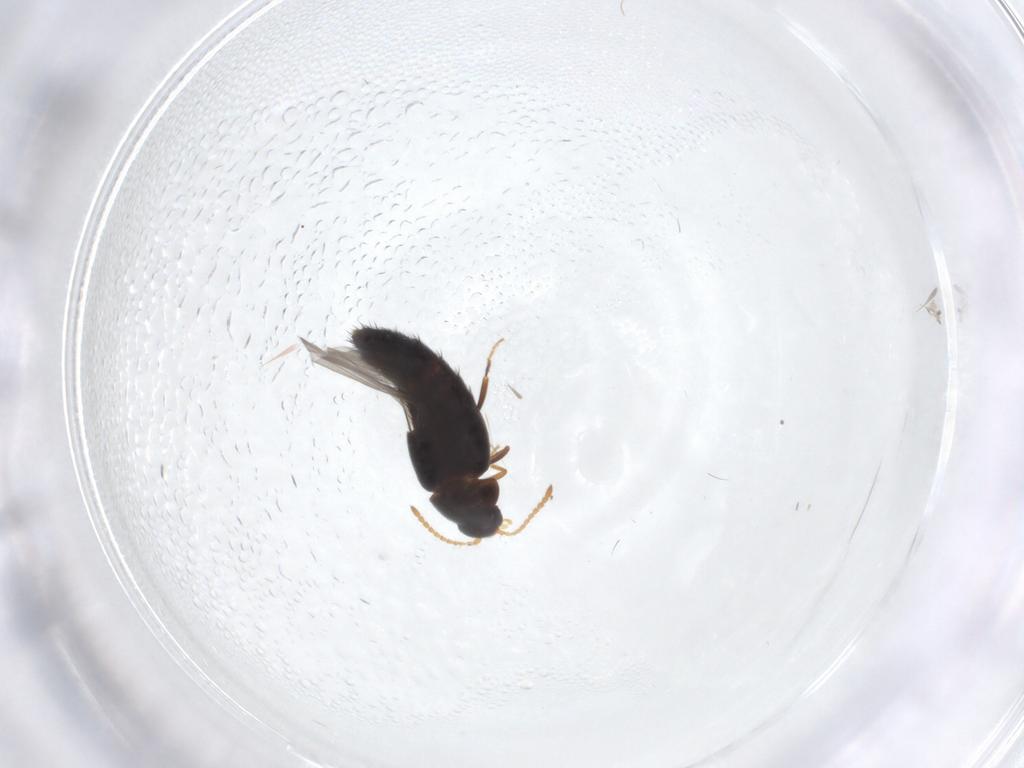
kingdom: Animalia
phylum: Arthropoda
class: Insecta
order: Coleoptera
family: Staphylinidae
